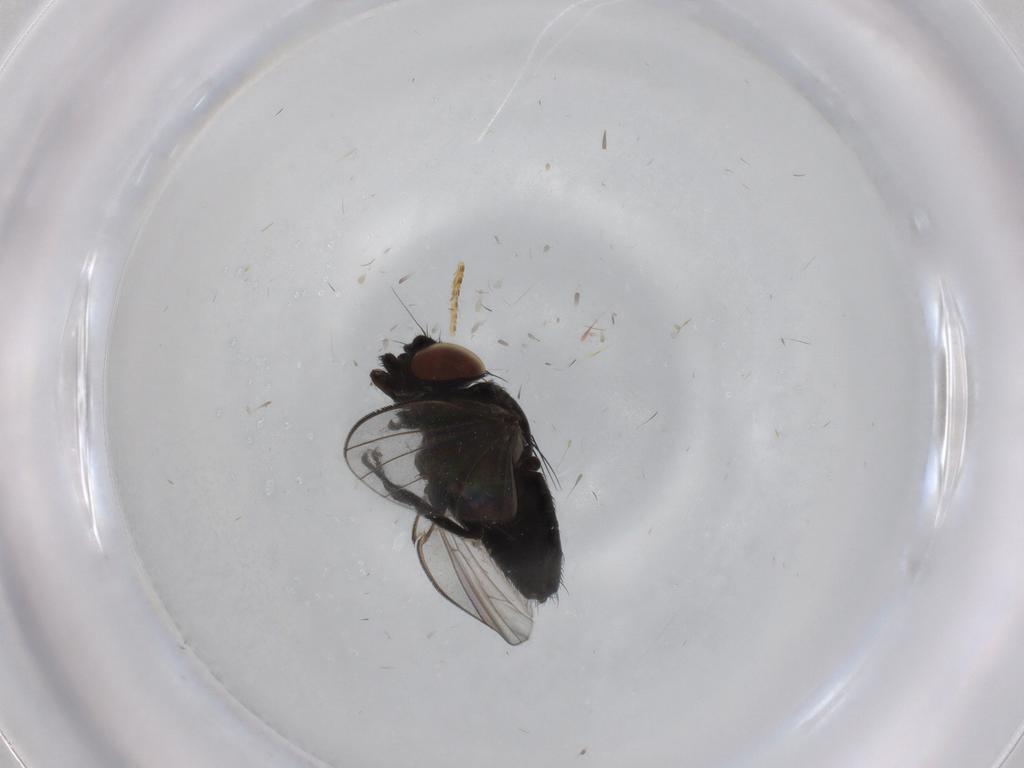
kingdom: Animalia
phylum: Arthropoda
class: Insecta
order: Diptera
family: Milichiidae
